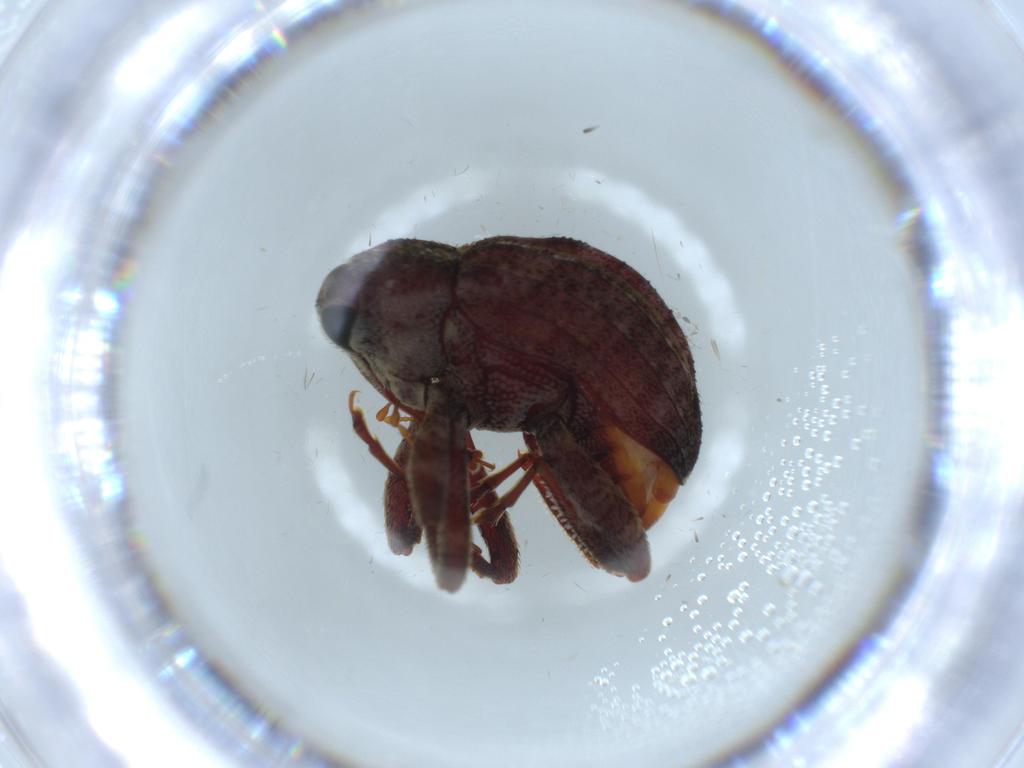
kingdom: Animalia
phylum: Arthropoda
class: Insecta
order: Coleoptera
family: Curculionidae
